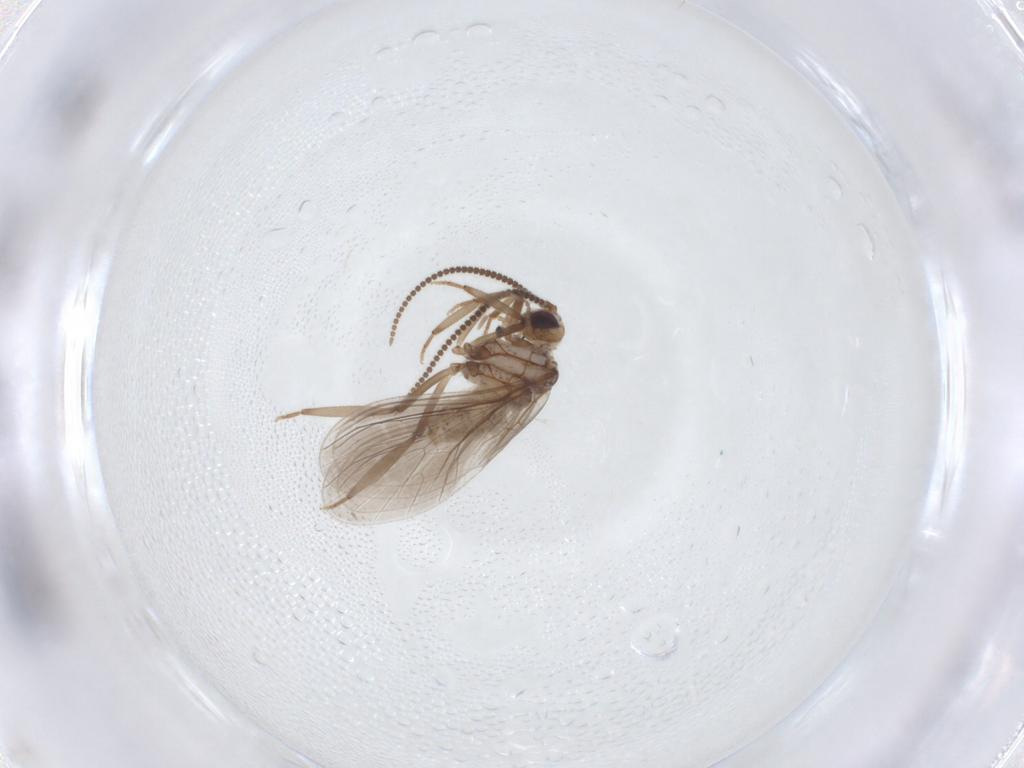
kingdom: Animalia
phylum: Arthropoda
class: Insecta
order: Neuroptera
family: Coniopterygidae
